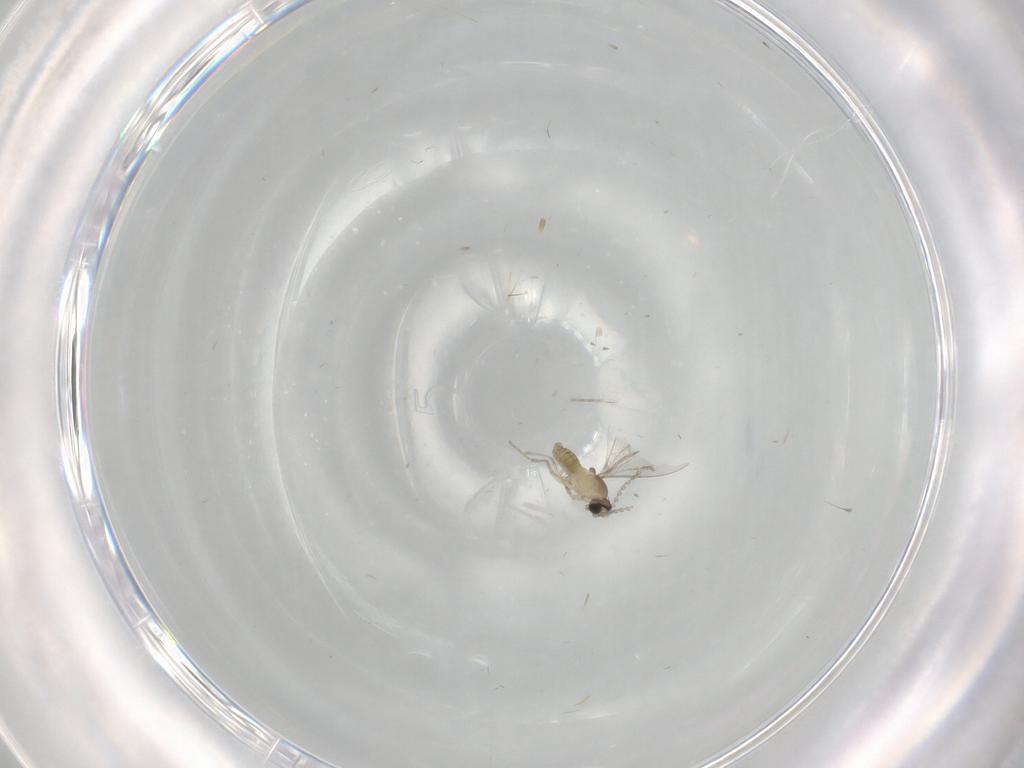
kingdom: Animalia
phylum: Arthropoda
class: Insecta
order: Diptera
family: Cecidomyiidae
